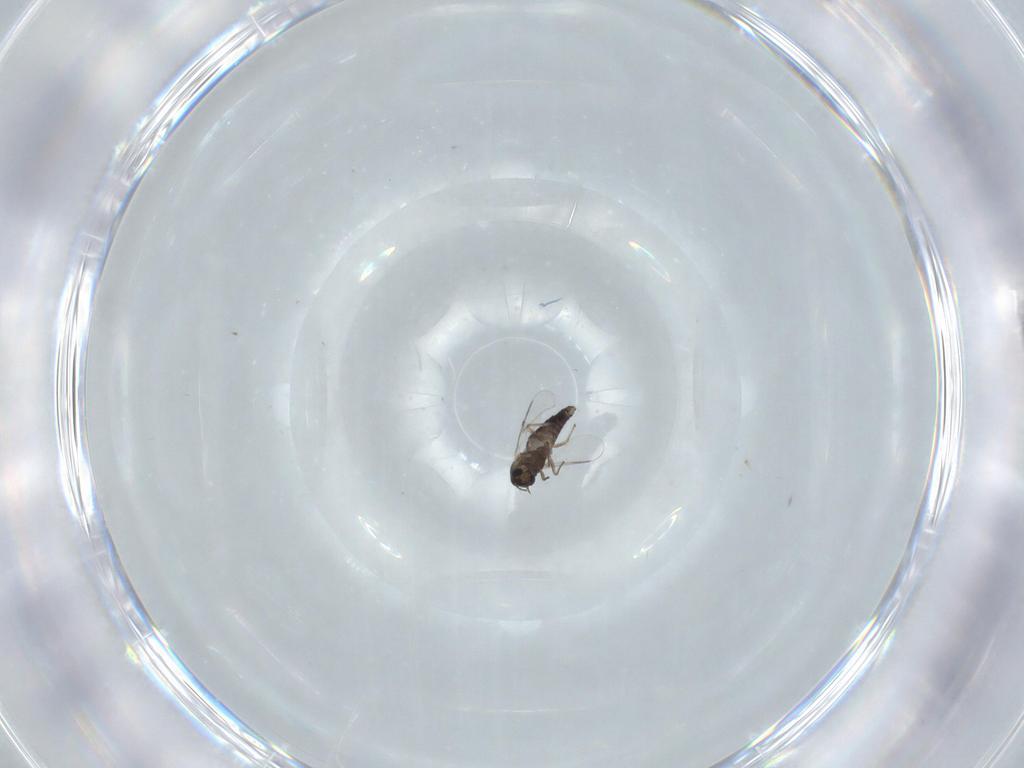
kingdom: Animalia
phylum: Arthropoda
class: Insecta
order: Diptera
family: Chironomidae
